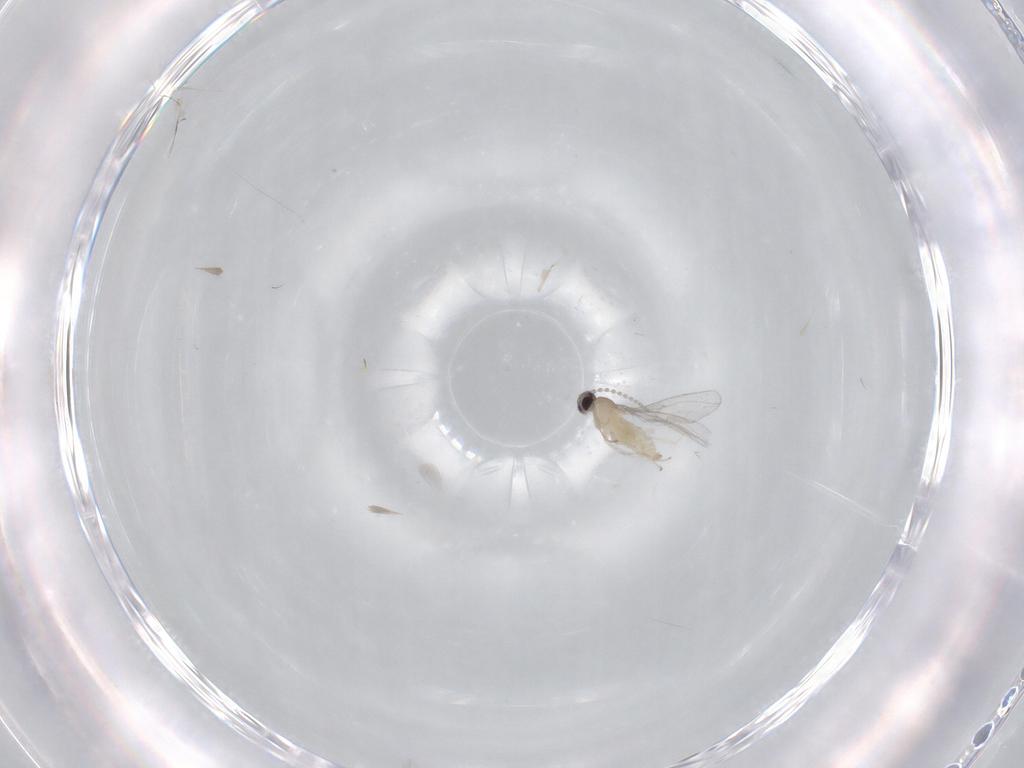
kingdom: Animalia
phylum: Arthropoda
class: Insecta
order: Diptera
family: Cecidomyiidae
